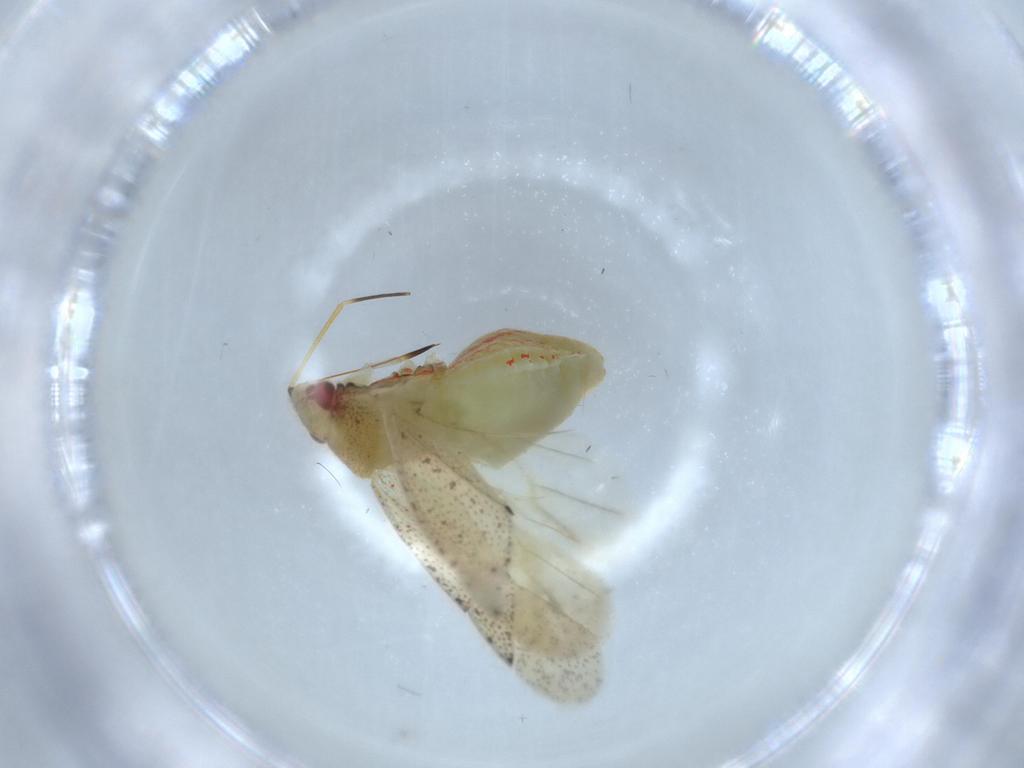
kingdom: Animalia
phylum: Arthropoda
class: Insecta
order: Hemiptera
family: Miridae
